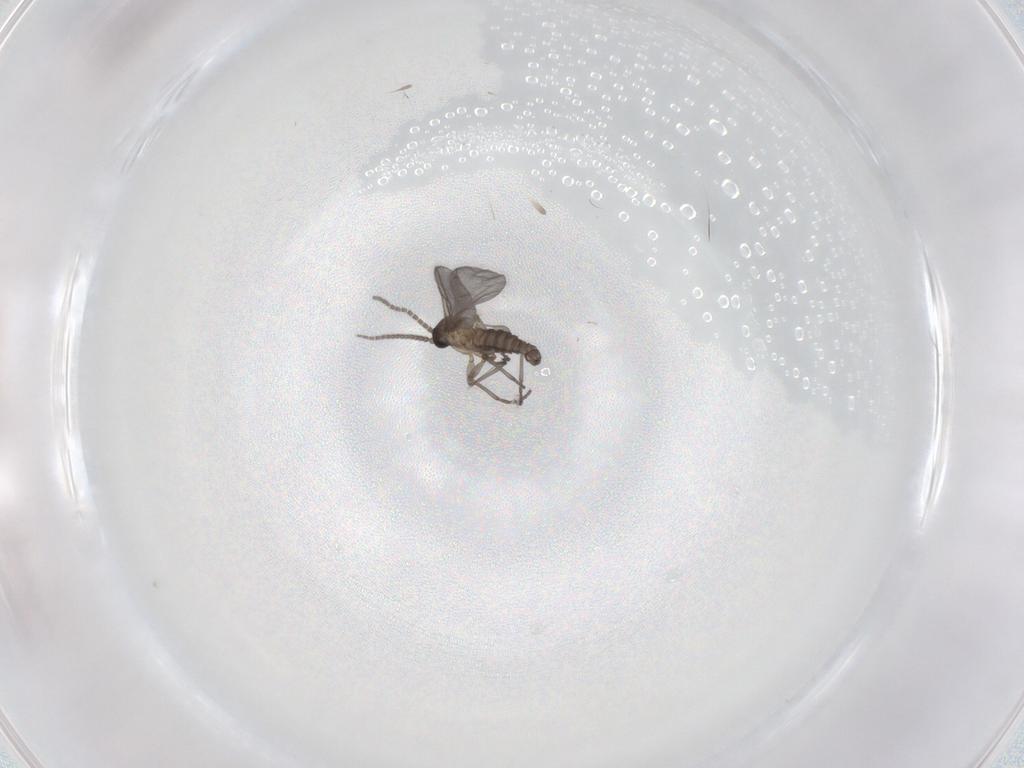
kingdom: Animalia
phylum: Arthropoda
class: Insecta
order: Diptera
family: Sciaridae
